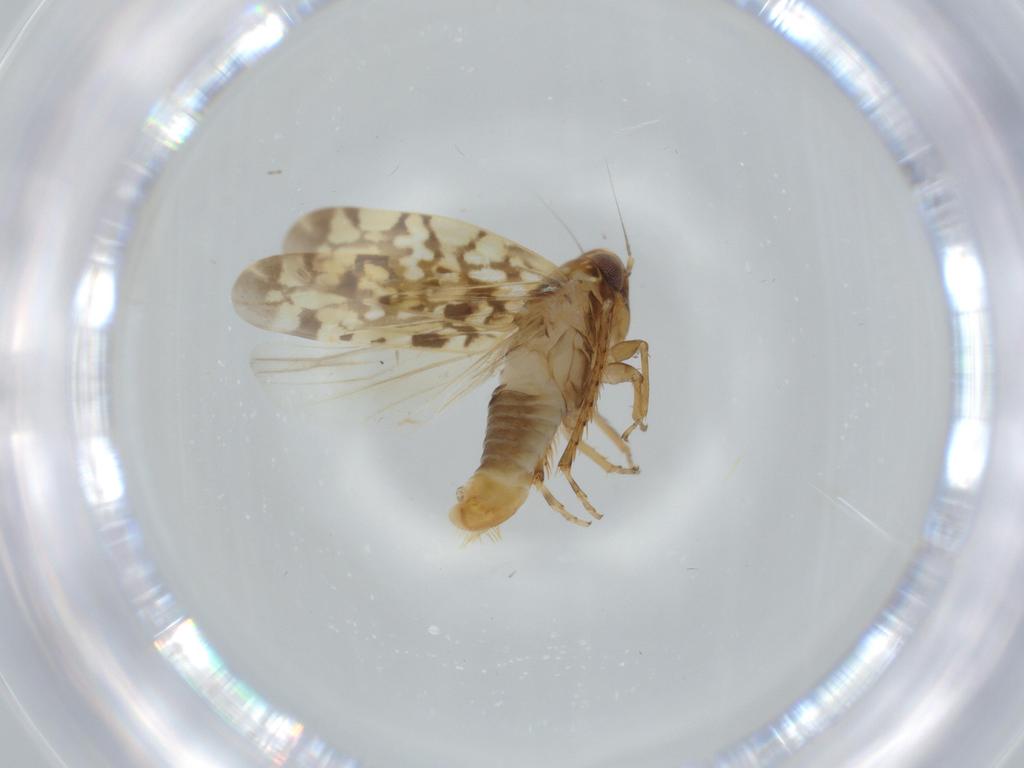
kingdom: Animalia
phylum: Arthropoda
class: Insecta
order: Hemiptera
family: Cicadellidae
